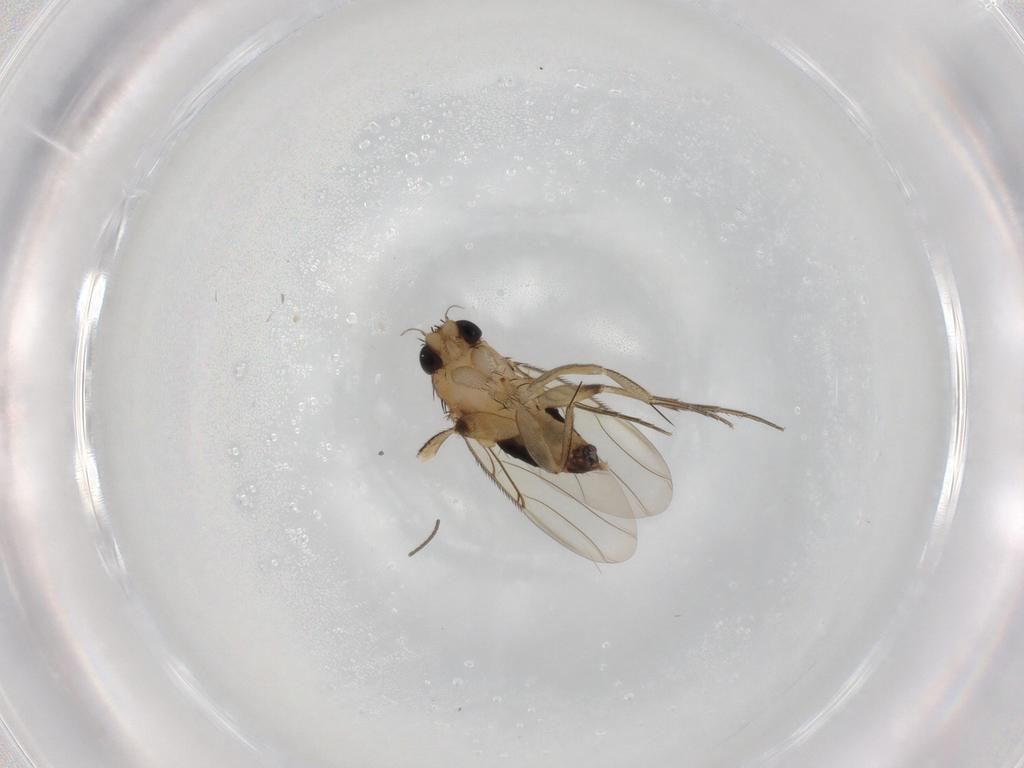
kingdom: Animalia
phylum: Arthropoda
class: Insecta
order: Diptera
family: Phoridae
